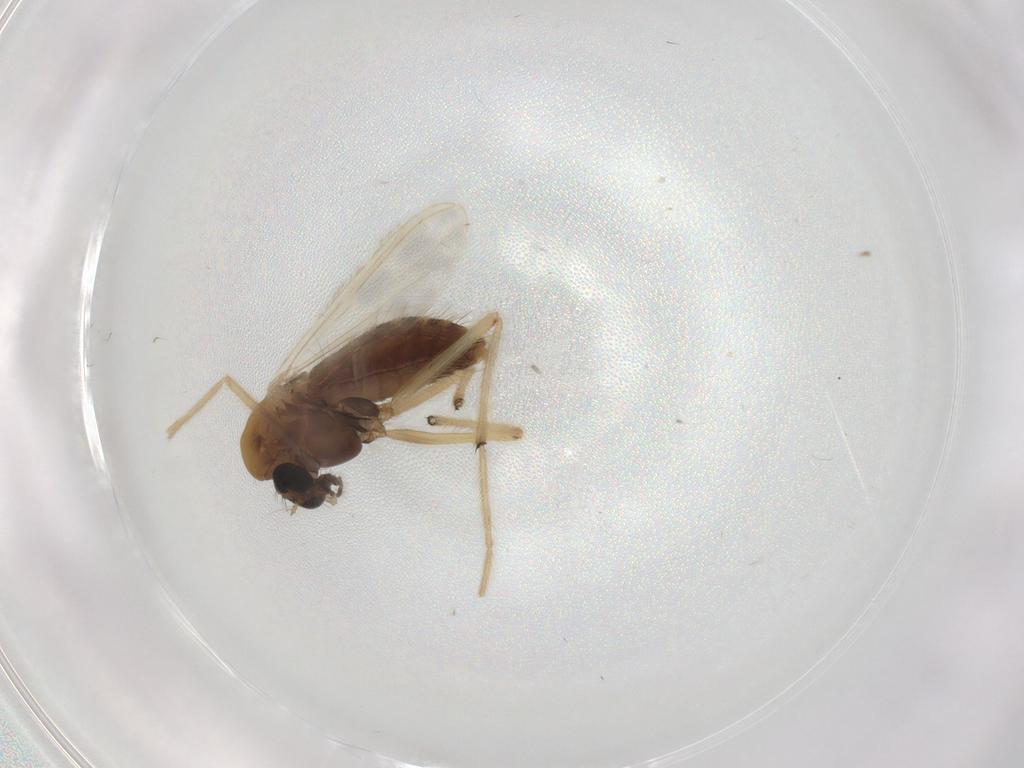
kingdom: Animalia
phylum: Arthropoda
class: Insecta
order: Diptera
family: Chironomidae
